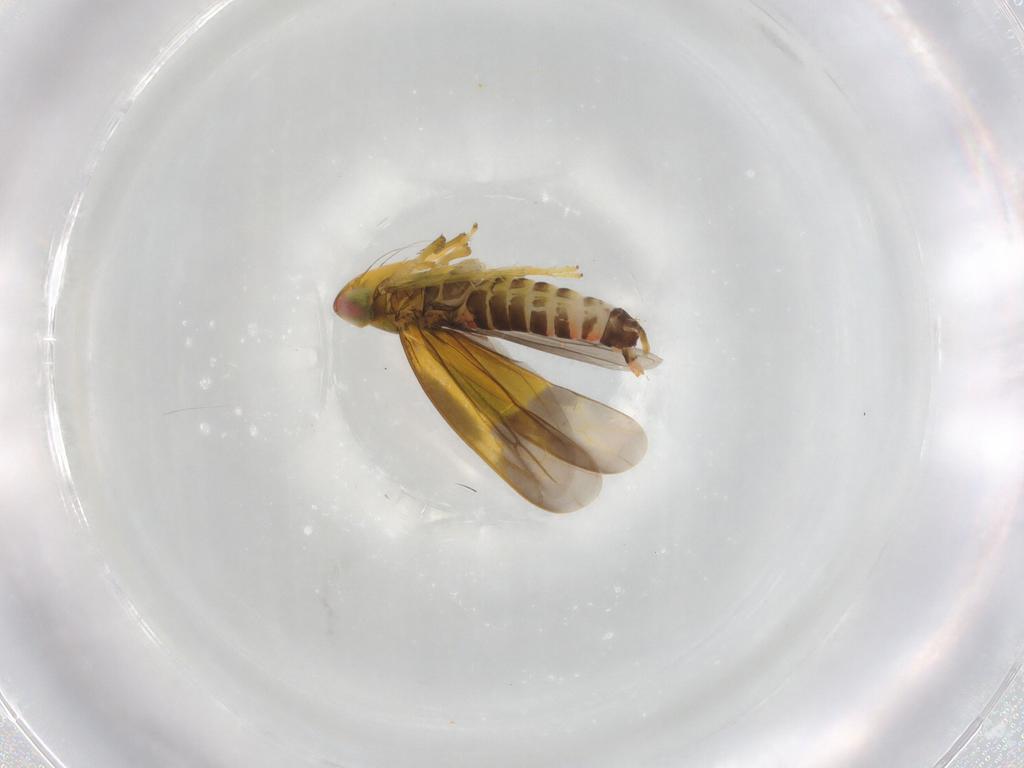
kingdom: Animalia
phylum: Arthropoda
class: Insecta
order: Hemiptera
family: Cicadellidae
